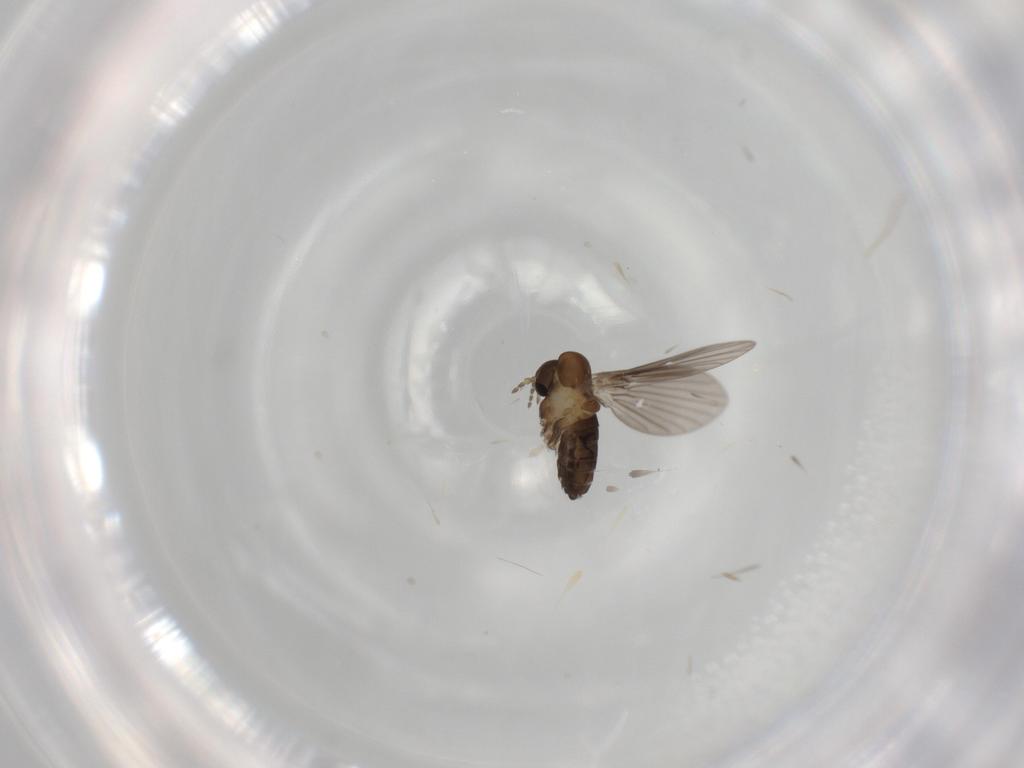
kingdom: Animalia
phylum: Arthropoda
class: Insecta
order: Diptera
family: Psychodidae
